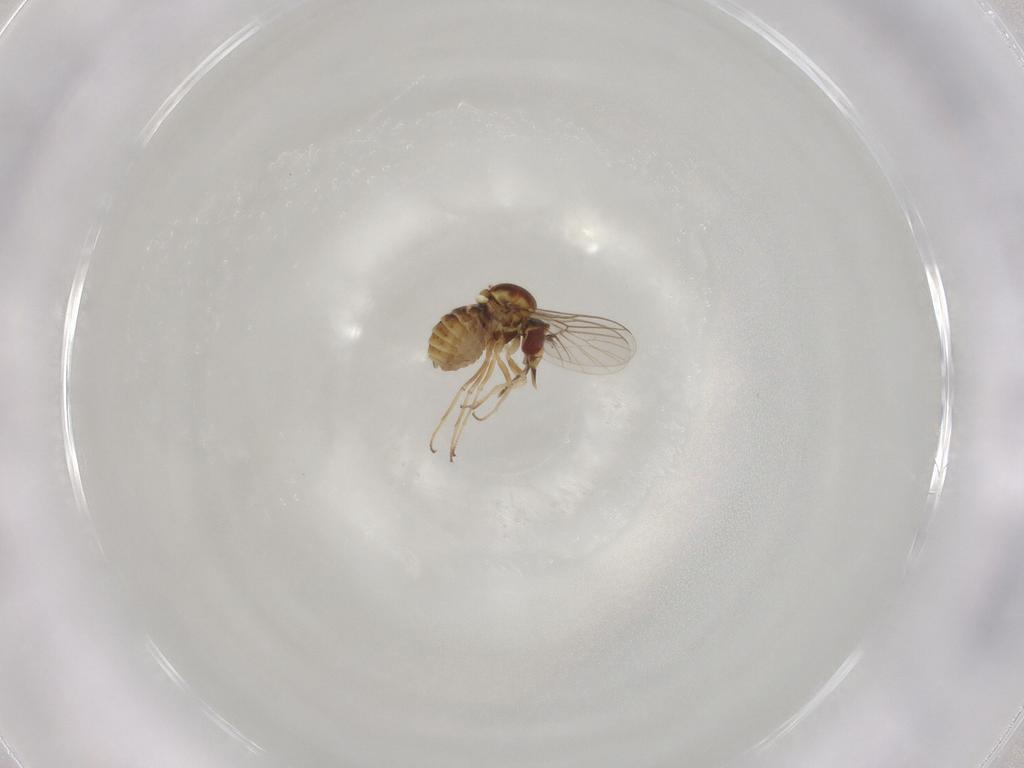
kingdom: Animalia
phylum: Arthropoda
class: Insecta
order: Diptera
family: Mythicomyiidae
